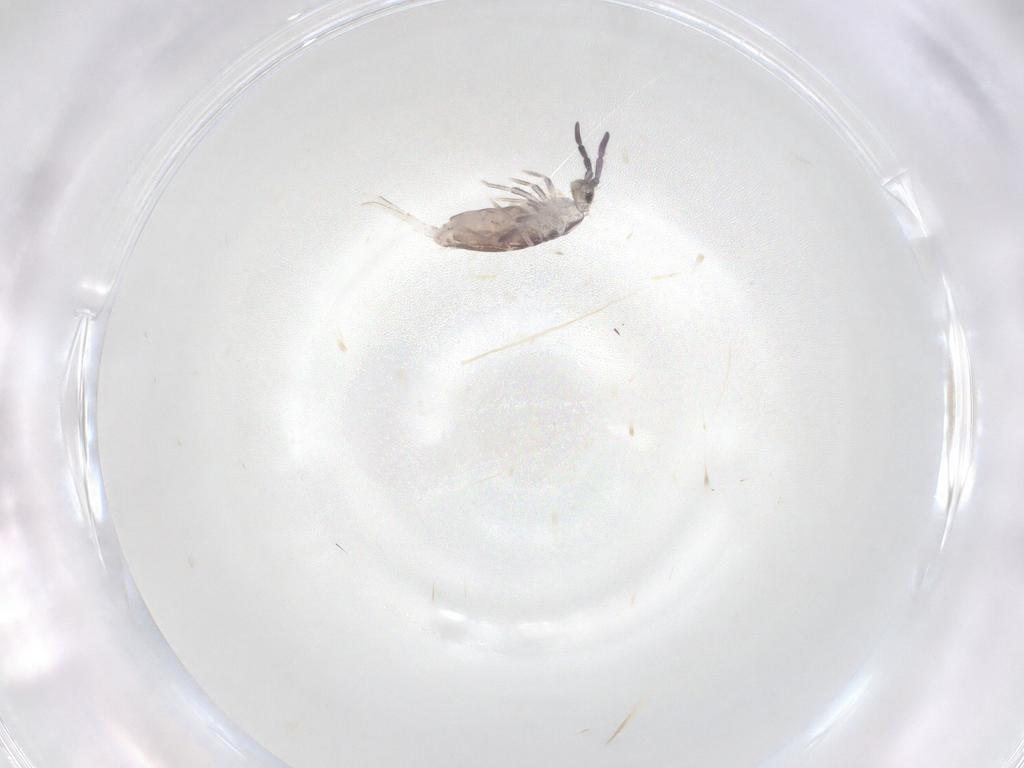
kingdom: Animalia
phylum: Arthropoda
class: Collembola
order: Poduromorpha
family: Hypogastruridae
